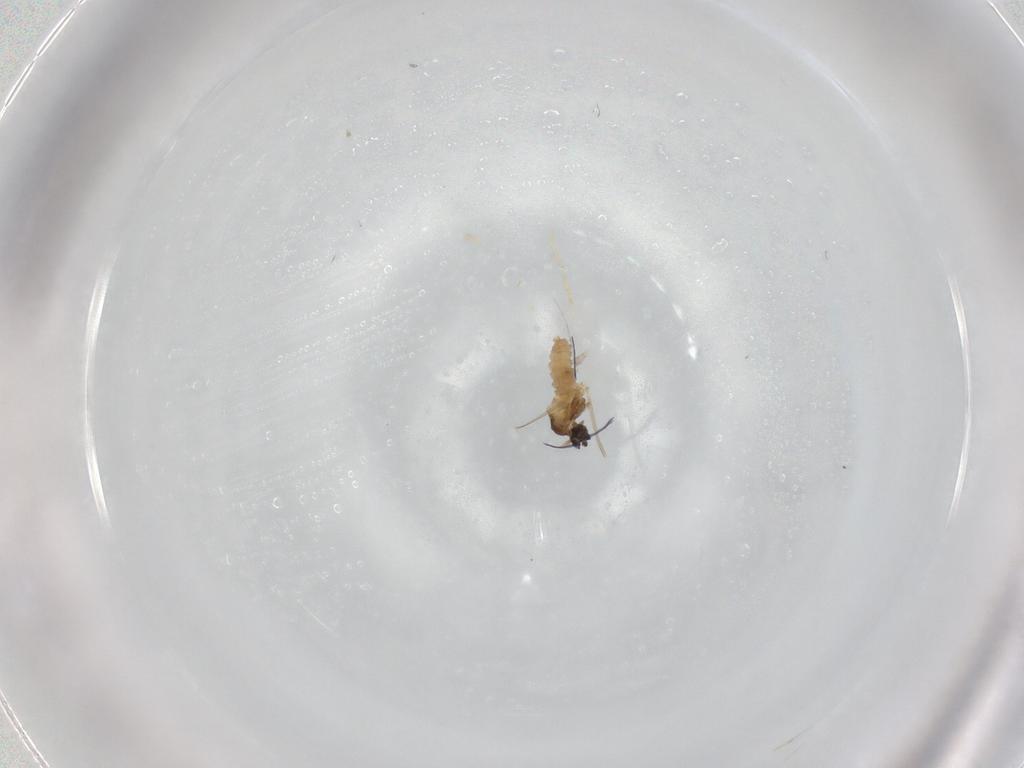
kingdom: Animalia
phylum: Arthropoda
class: Insecta
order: Diptera
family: Cecidomyiidae
